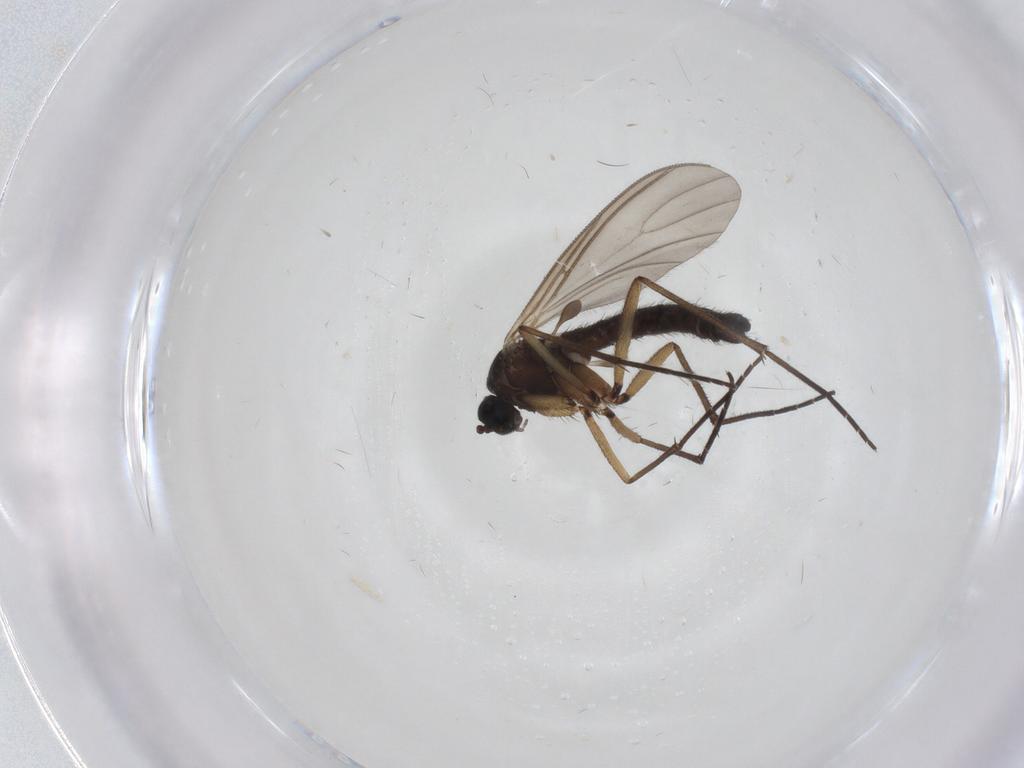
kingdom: Animalia
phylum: Arthropoda
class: Insecta
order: Diptera
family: Sciaridae
